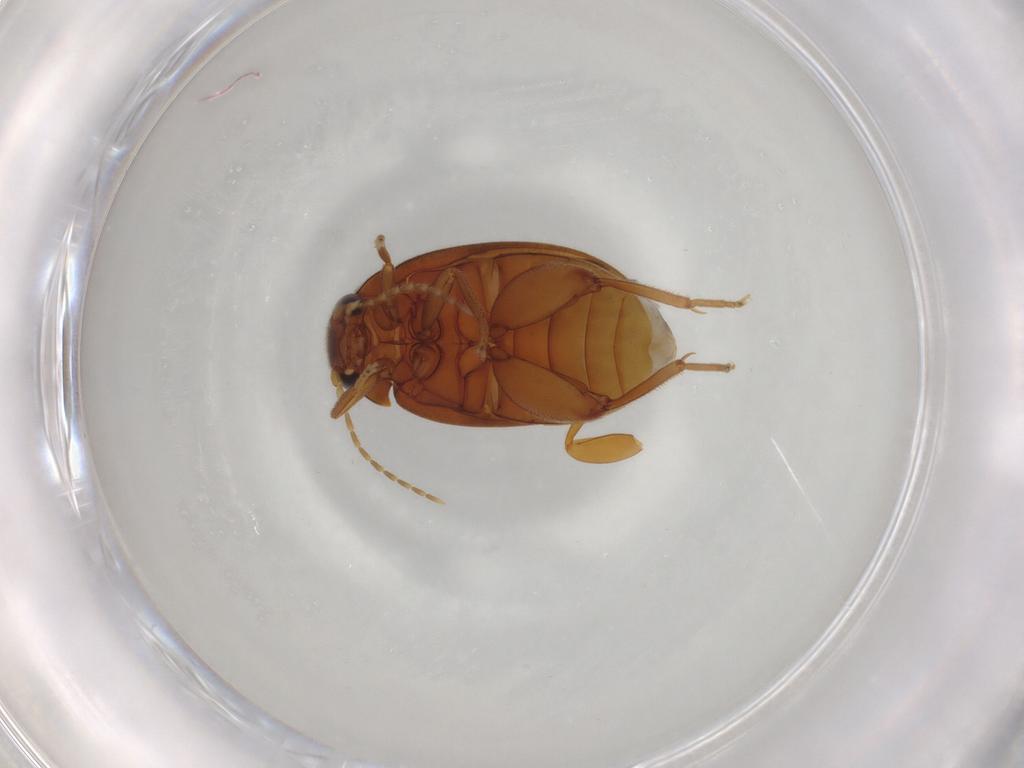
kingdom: Animalia
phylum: Arthropoda
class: Insecta
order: Coleoptera
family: Scirtidae
